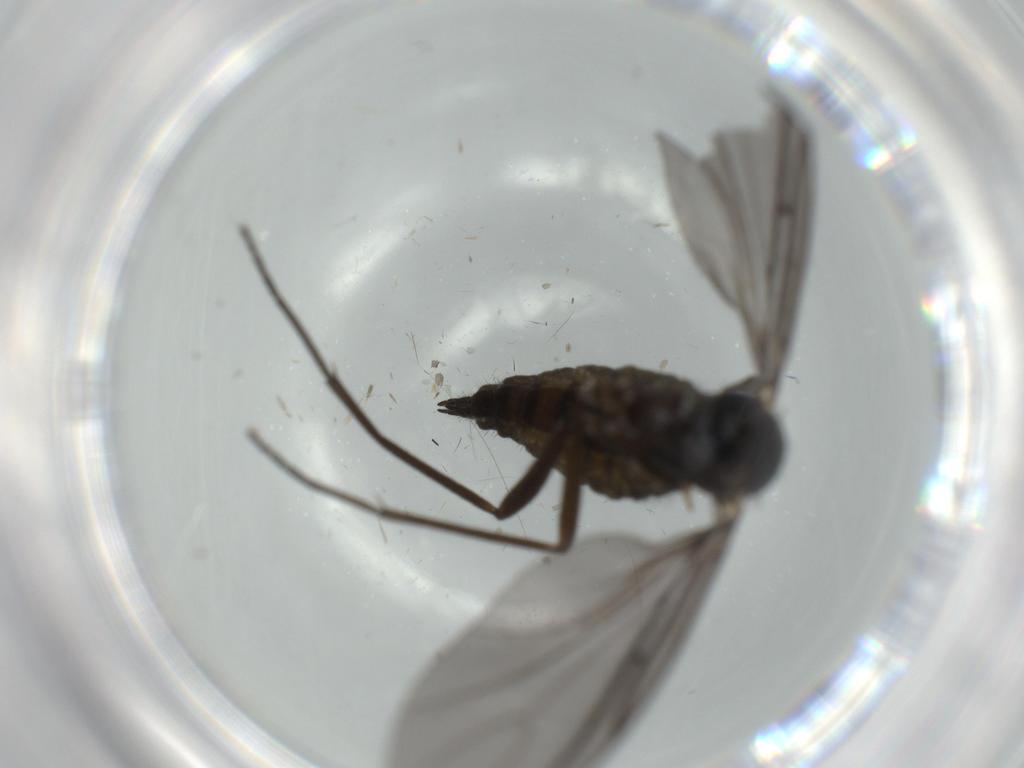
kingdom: Animalia
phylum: Arthropoda
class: Insecta
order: Diptera
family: Sciaridae
